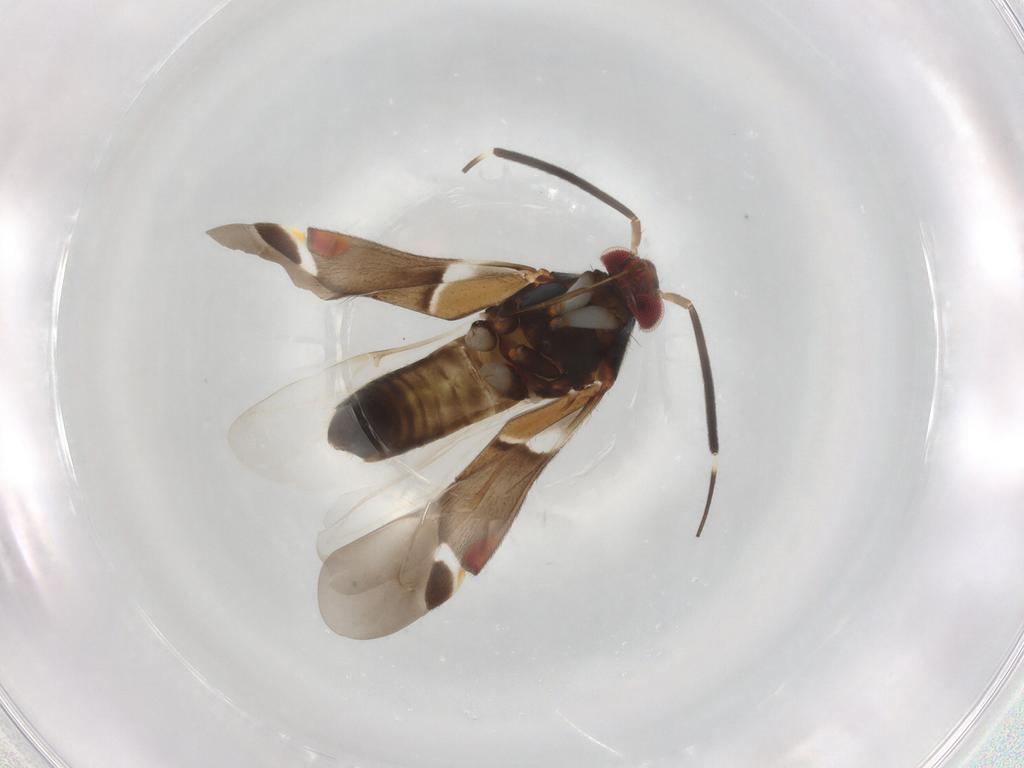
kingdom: Animalia
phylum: Arthropoda
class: Insecta
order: Hemiptera
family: Miridae
